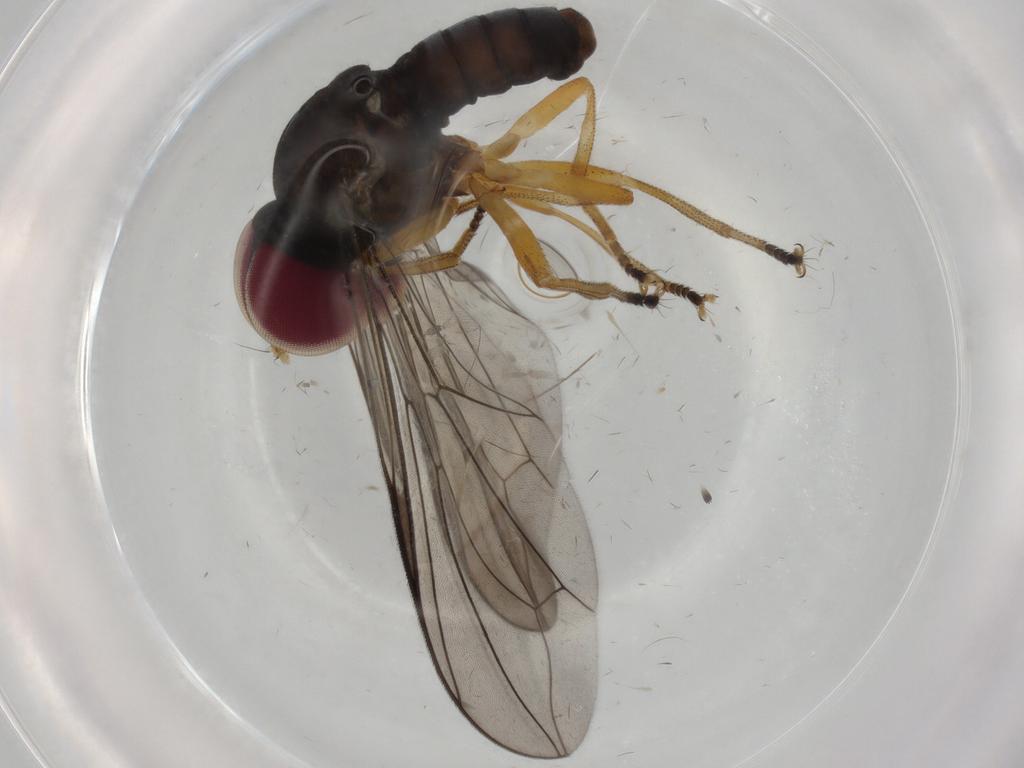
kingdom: Animalia
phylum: Arthropoda
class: Insecta
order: Diptera
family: Pipunculidae
